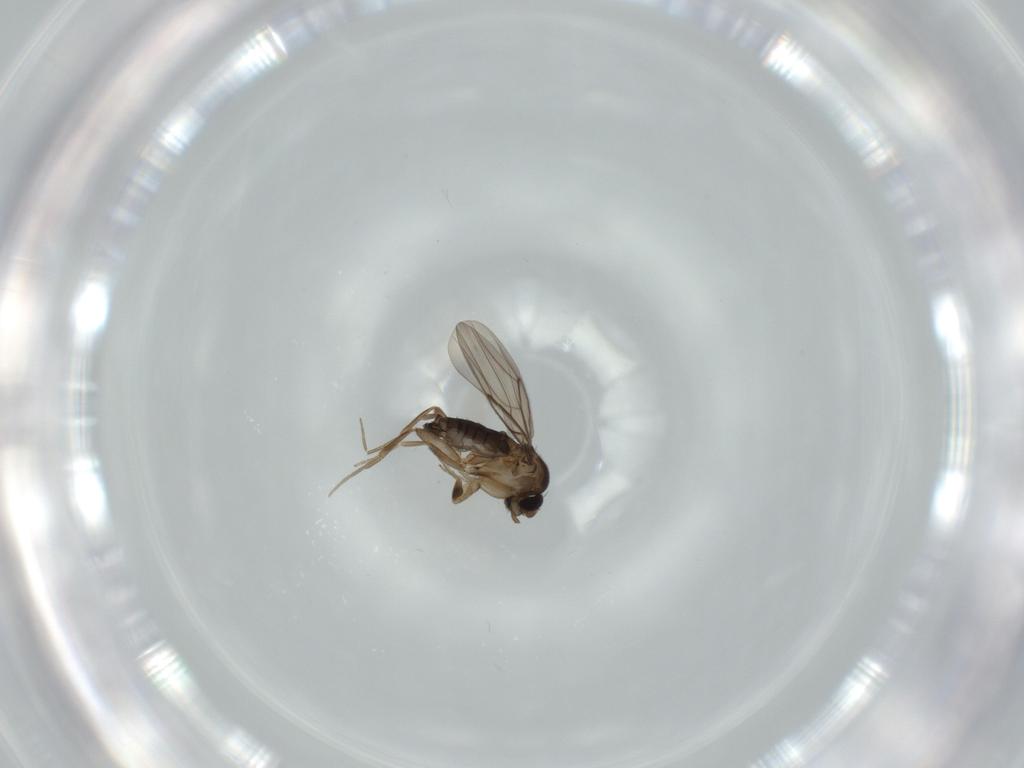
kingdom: Animalia
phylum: Arthropoda
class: Insecta
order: Diptera
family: Phoridae
